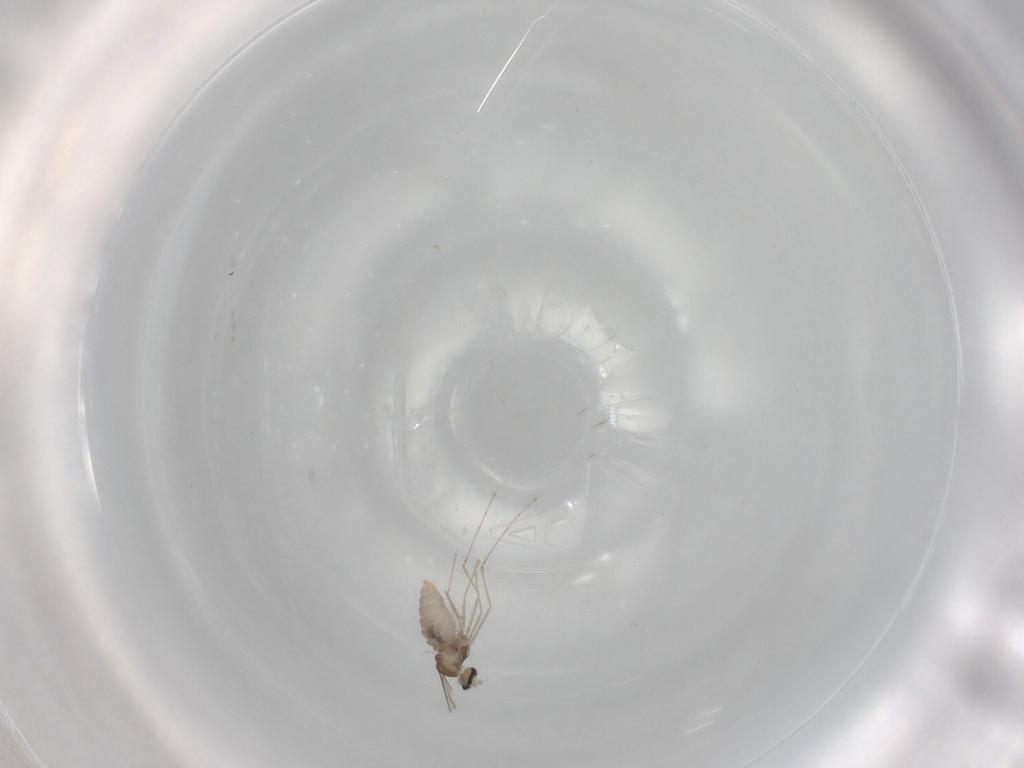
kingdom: Animalia
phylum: Arthropoda
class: Insecta
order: Diptera
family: Cecidomyiidae
